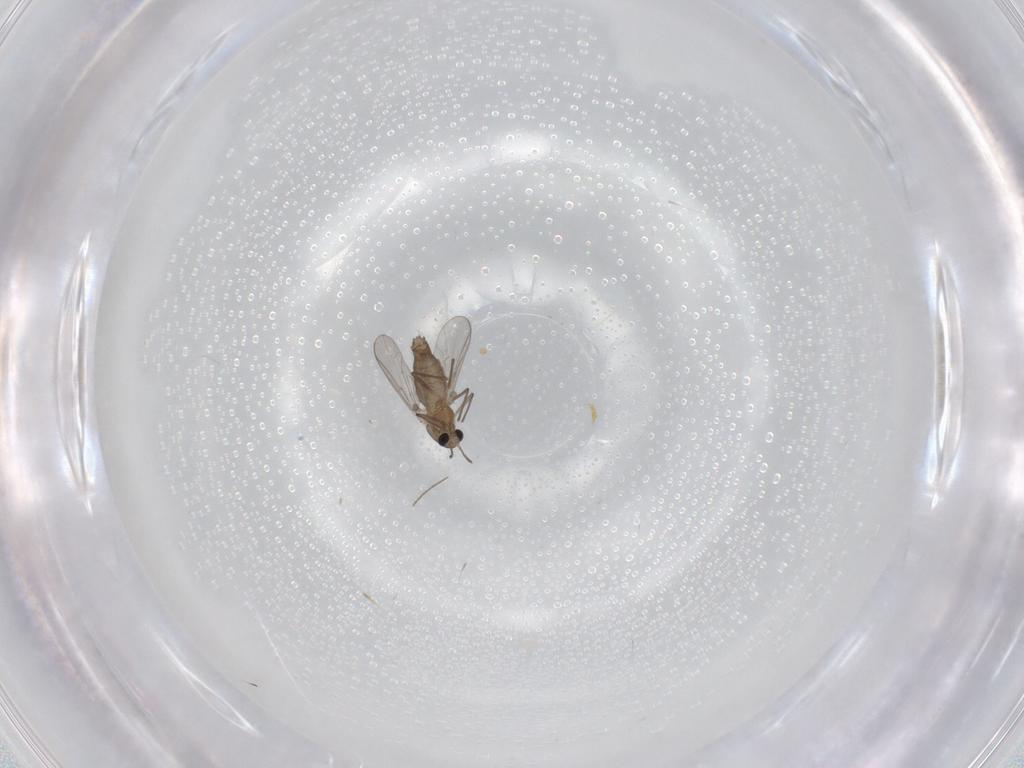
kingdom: Animalia
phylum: Arthropoda
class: Insecta
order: Diptera
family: Chironomidae
